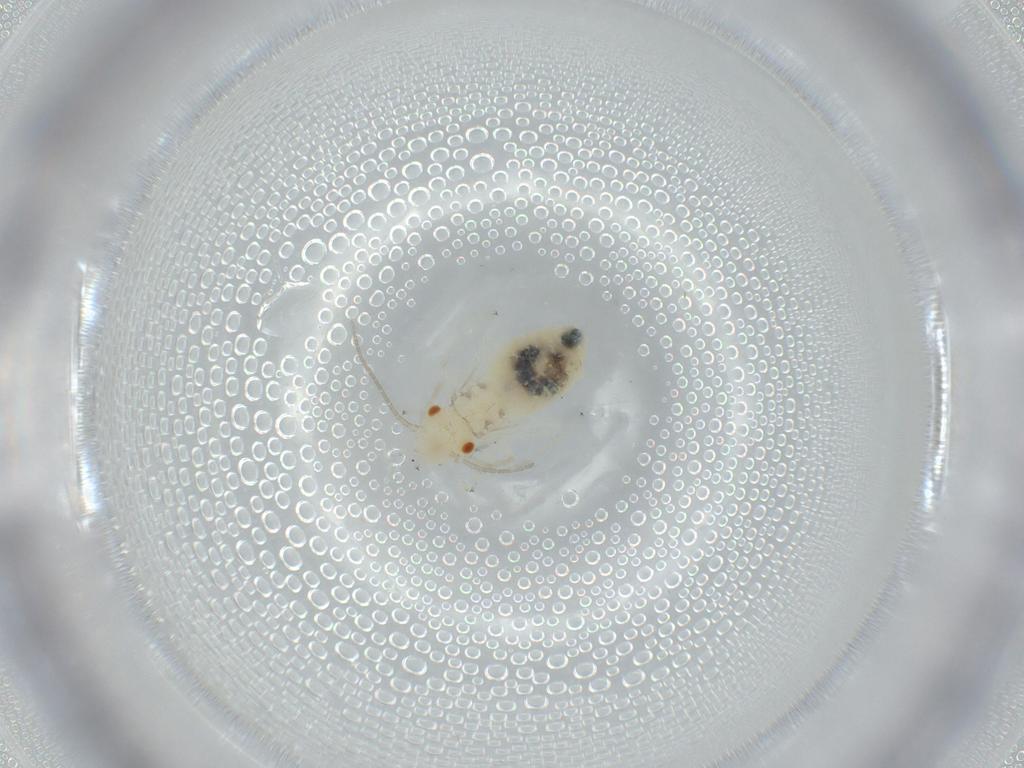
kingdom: Animalia
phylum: Arthropoda
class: Insecta
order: Psocodea
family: Caeciliusidae
